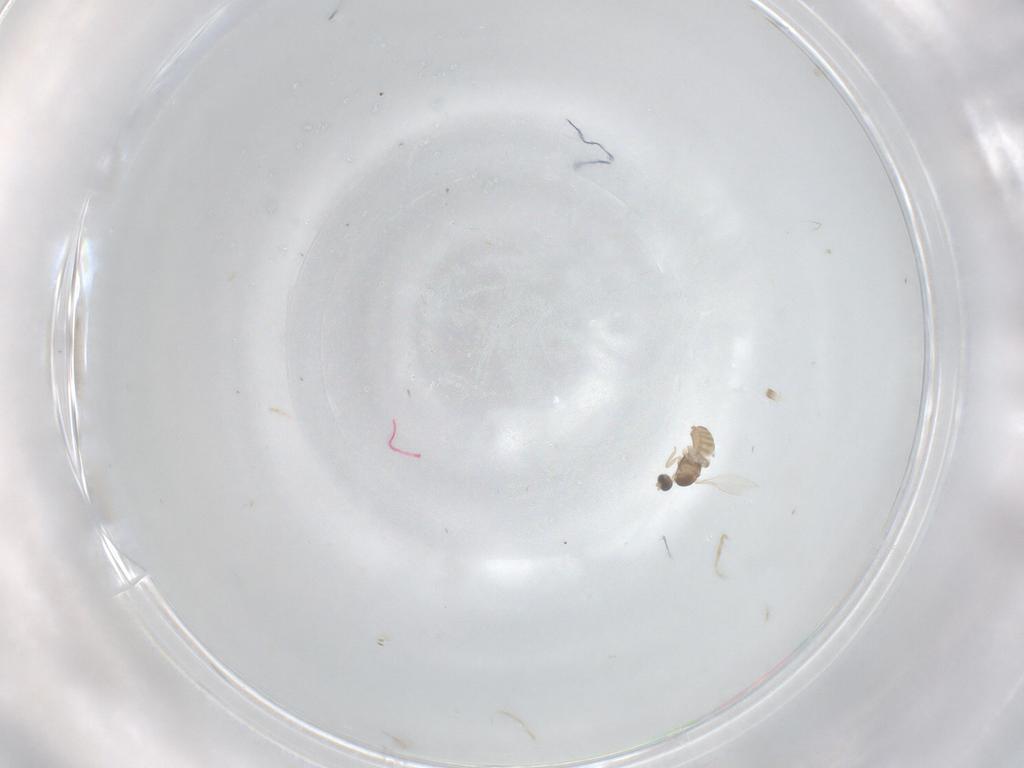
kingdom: Animalia
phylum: Arthropoda
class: Insecta
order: Diptera
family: Cecidomyiidae
